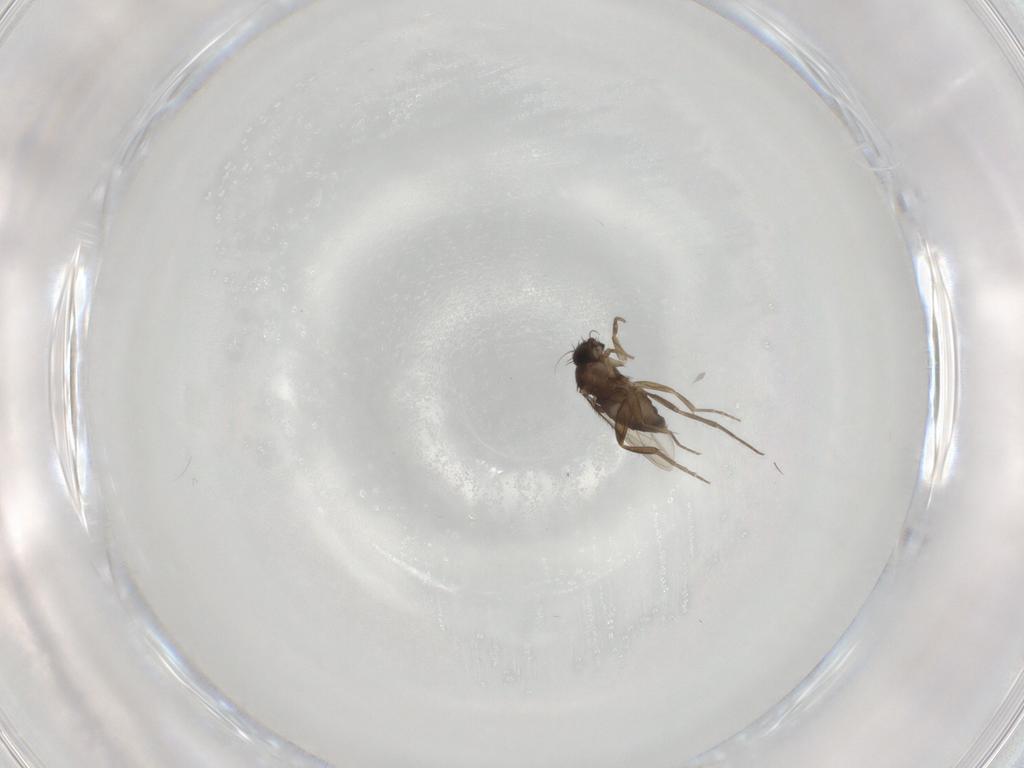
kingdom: Animalia
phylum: Arthropoda
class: Insecta
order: Diptera
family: Phoridae
